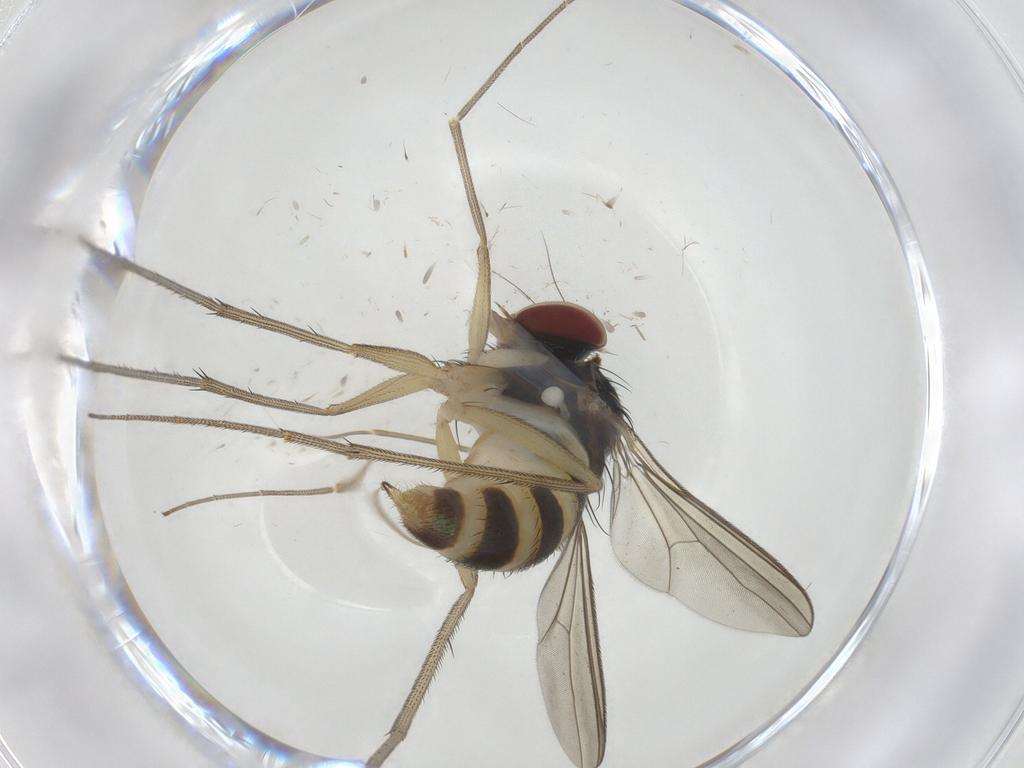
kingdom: Animalia
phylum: Arthropoda
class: Insecta
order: Diptera
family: Dolichopodidae
